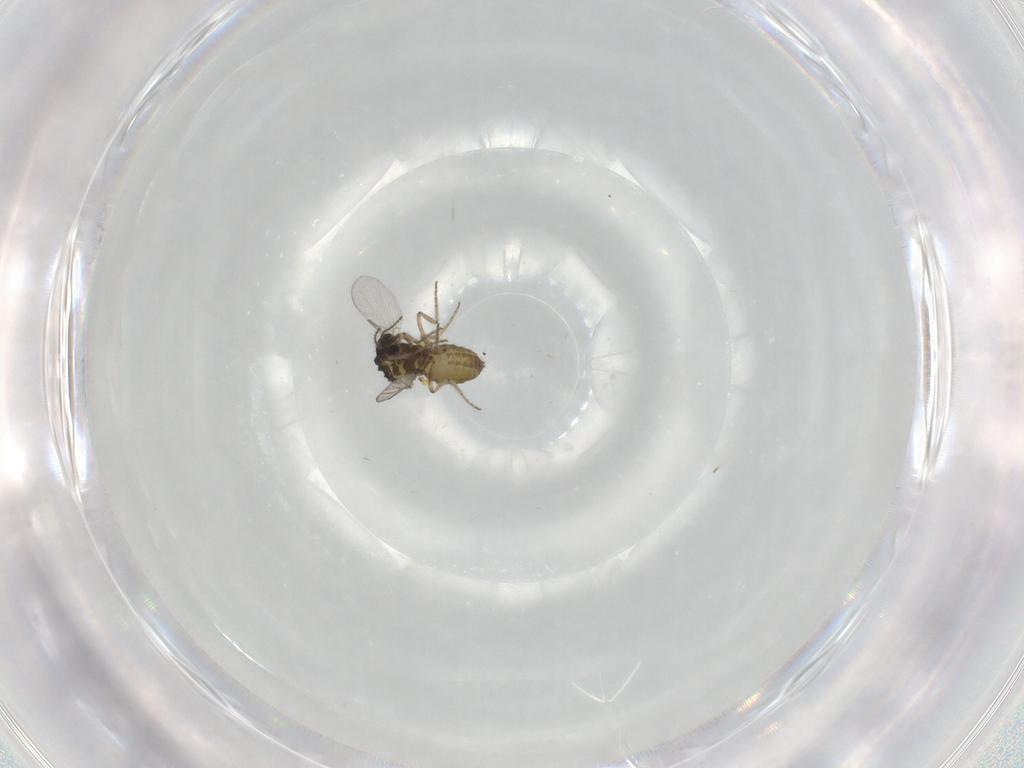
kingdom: Animalia
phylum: Arthropoda
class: Insecta
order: Diptera
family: Ceratopogonidae
